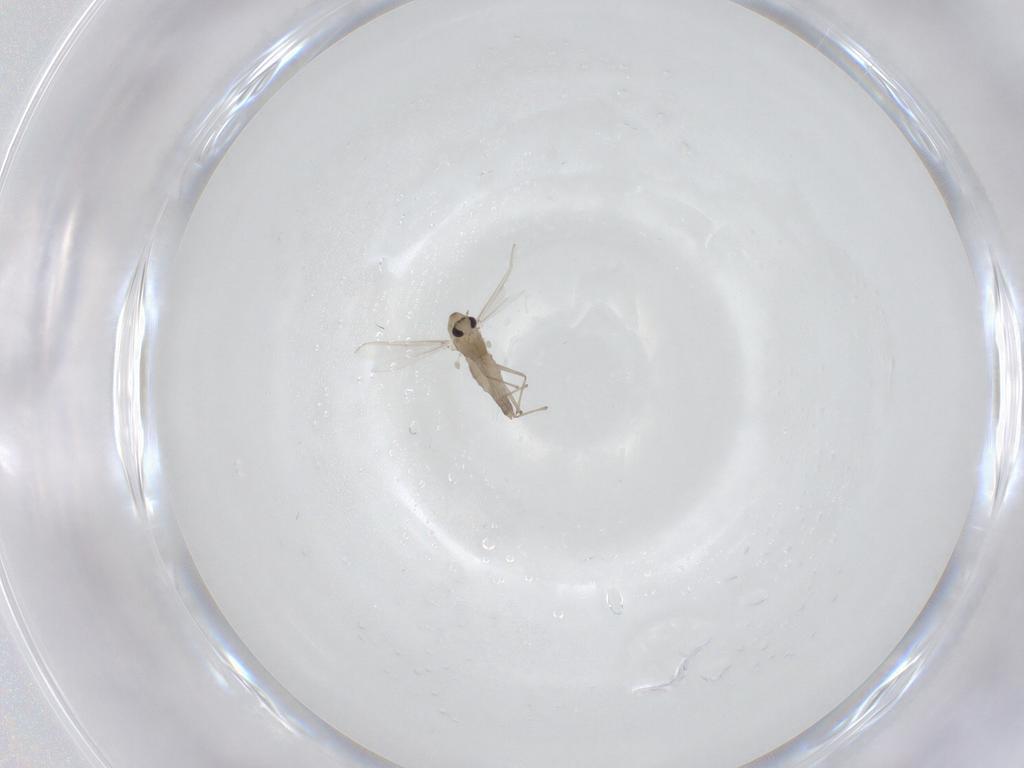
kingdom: Animalia
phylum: Arthropoda
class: Insecta
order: Diptera
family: Chironomidae
